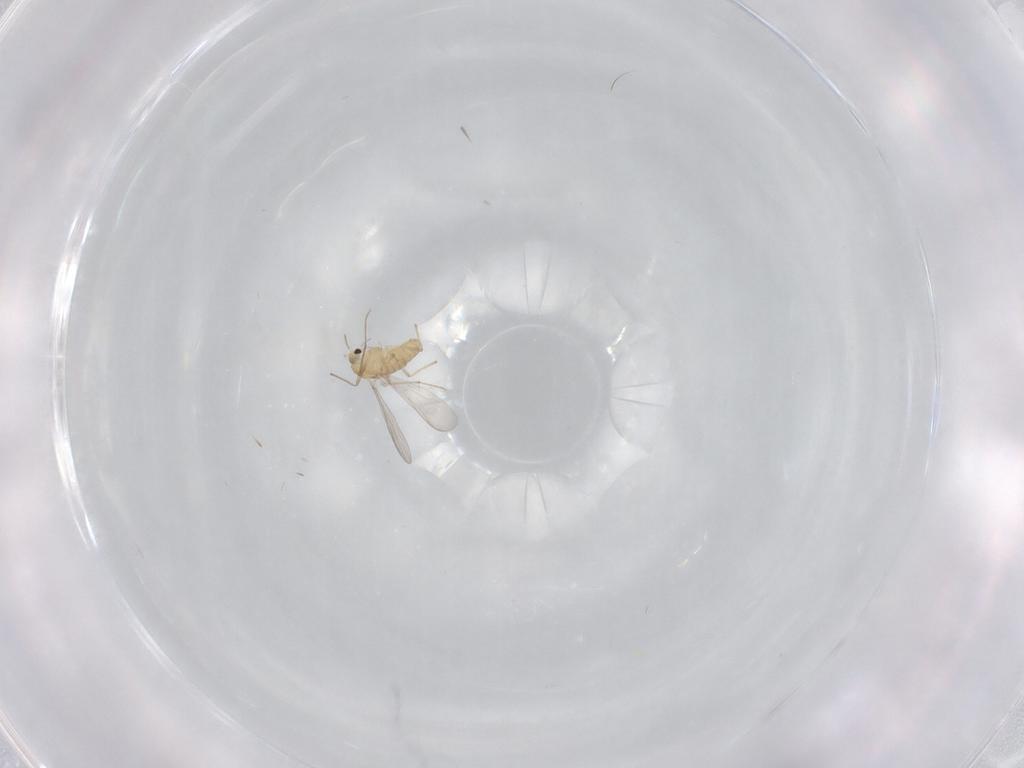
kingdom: Animalia
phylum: Arthropoda
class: Insecta
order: Diptera
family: Chironomidae
